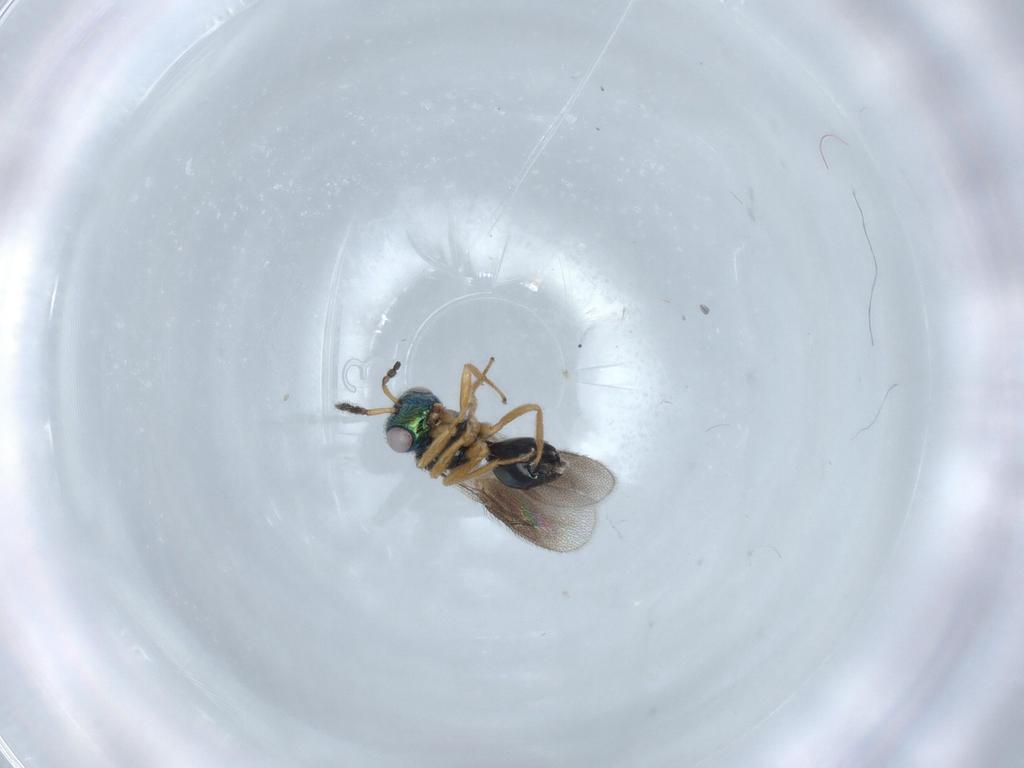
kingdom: Animalia
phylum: Arthropoda
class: Insecta
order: Hymenoptera
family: Pteromalidae
